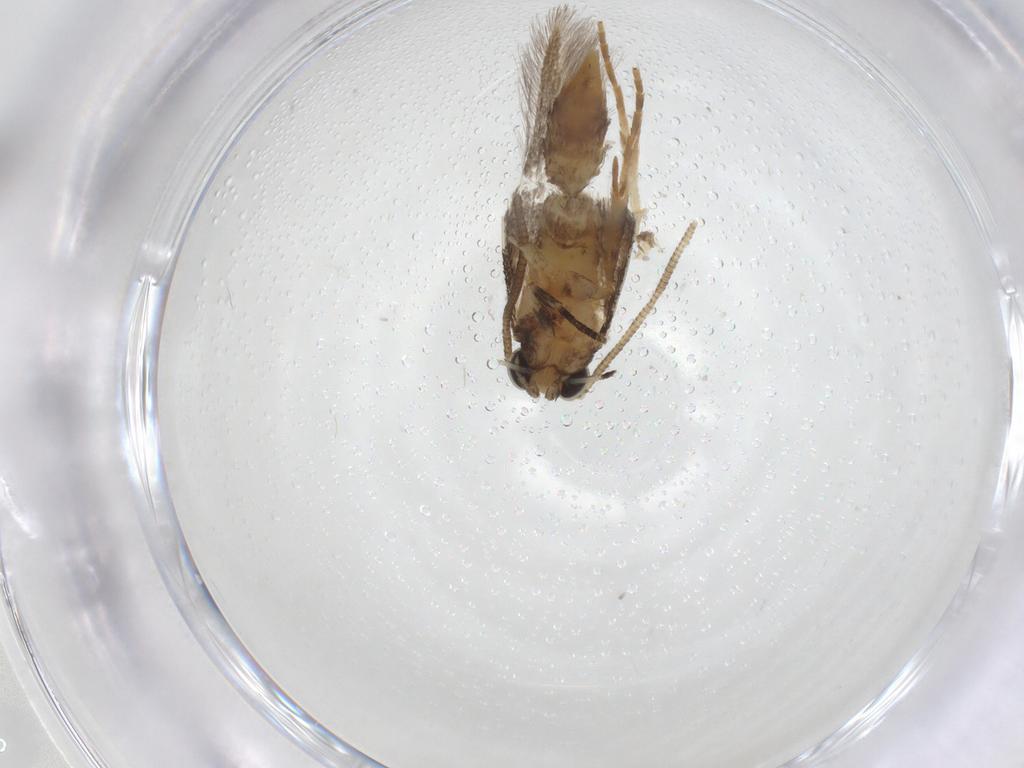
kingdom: Animalia
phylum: Arthropoda
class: Insecta
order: Lepidoptera
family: Tineidae
